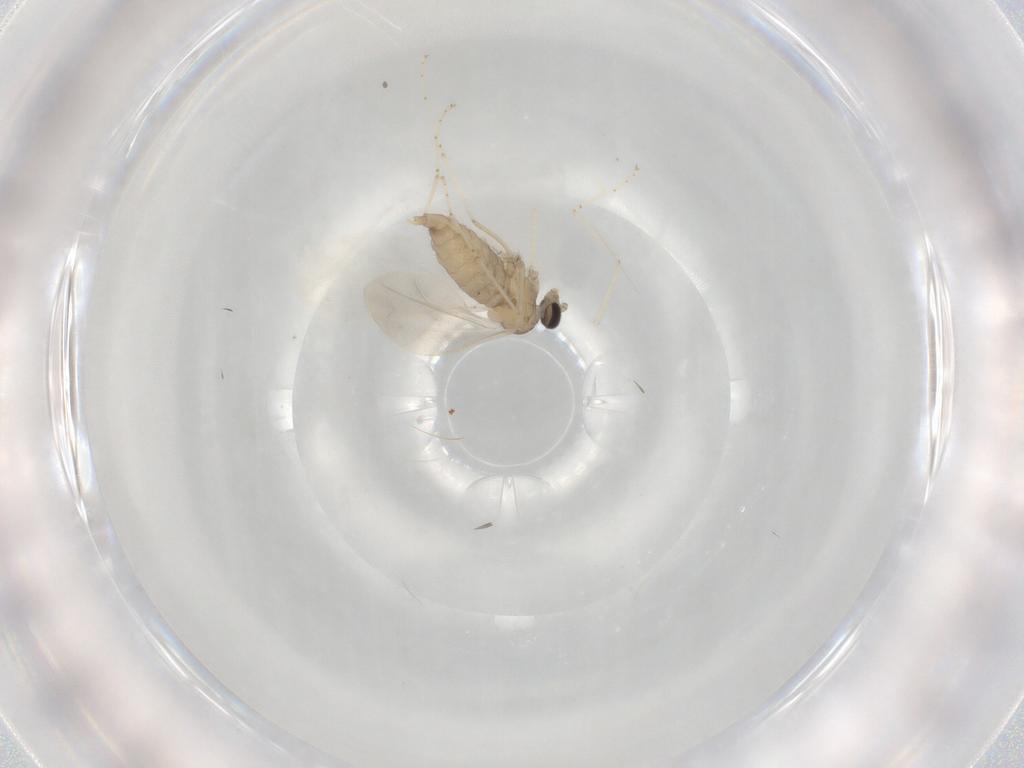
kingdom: Animalia
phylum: Arthropoda
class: Insecta
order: Diptera
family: Cecidomyiidae
